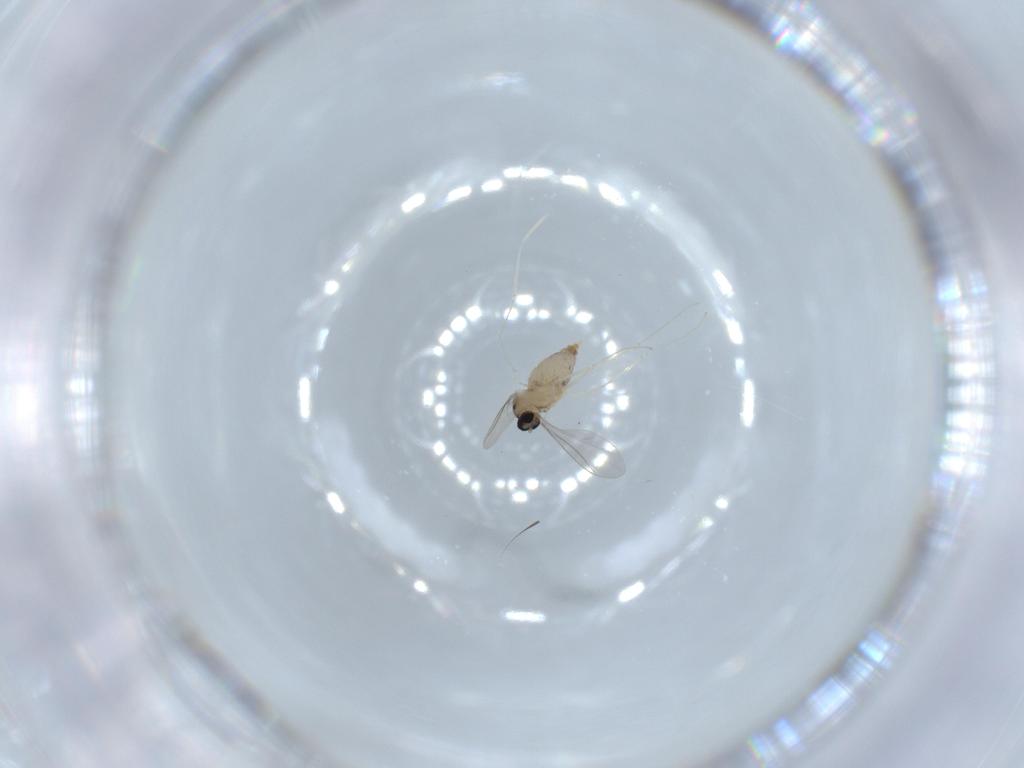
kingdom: Animalia
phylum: Arthropoda
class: Insecta
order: Diptera
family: Cecidomyiidae
